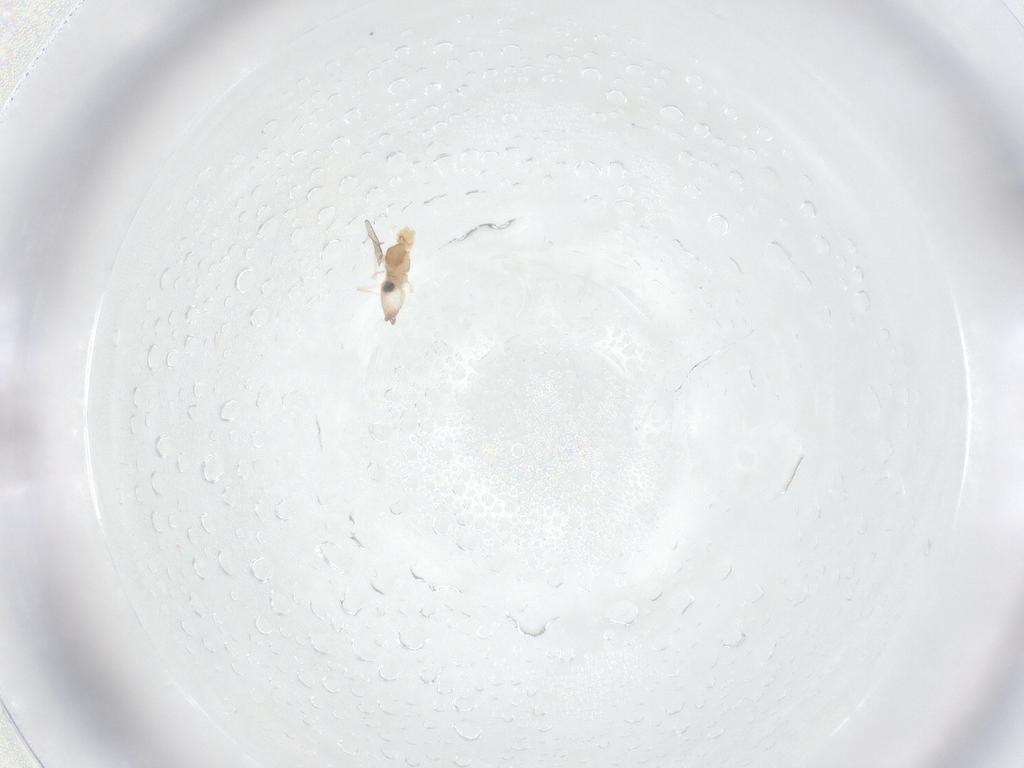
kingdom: Animalia
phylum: Arthropoda
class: Insecta
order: Diptera
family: Cecidomyiidae
